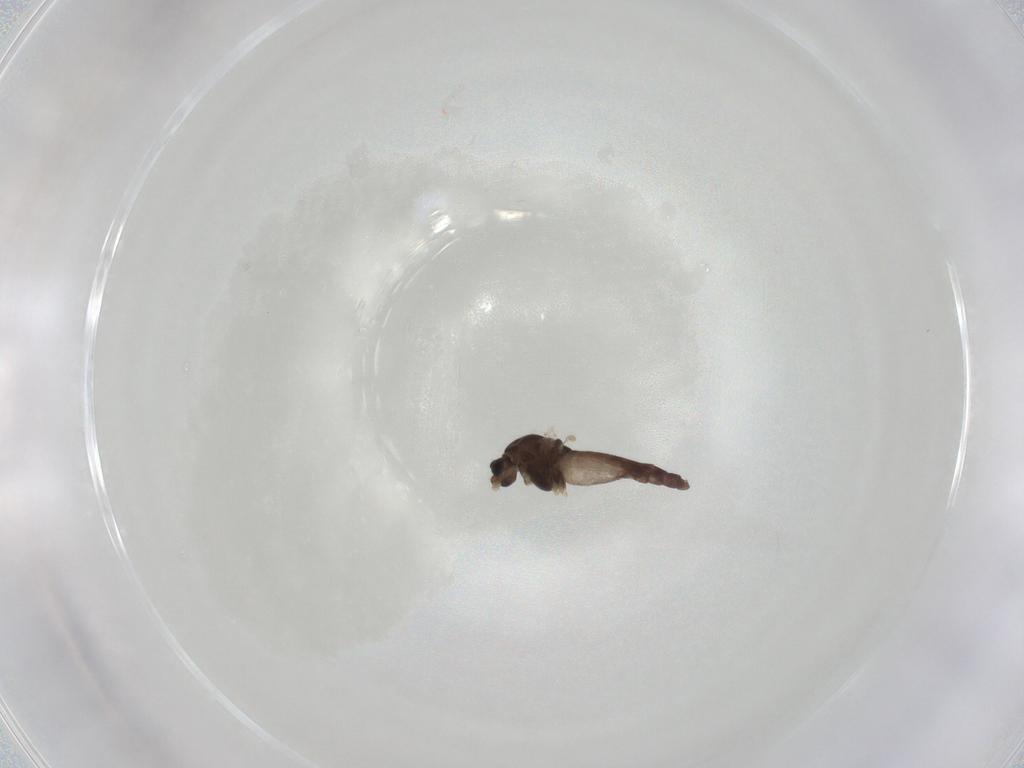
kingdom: Animalia
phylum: Arthropoda
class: Insecta
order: Diptera
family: Chironomidae
